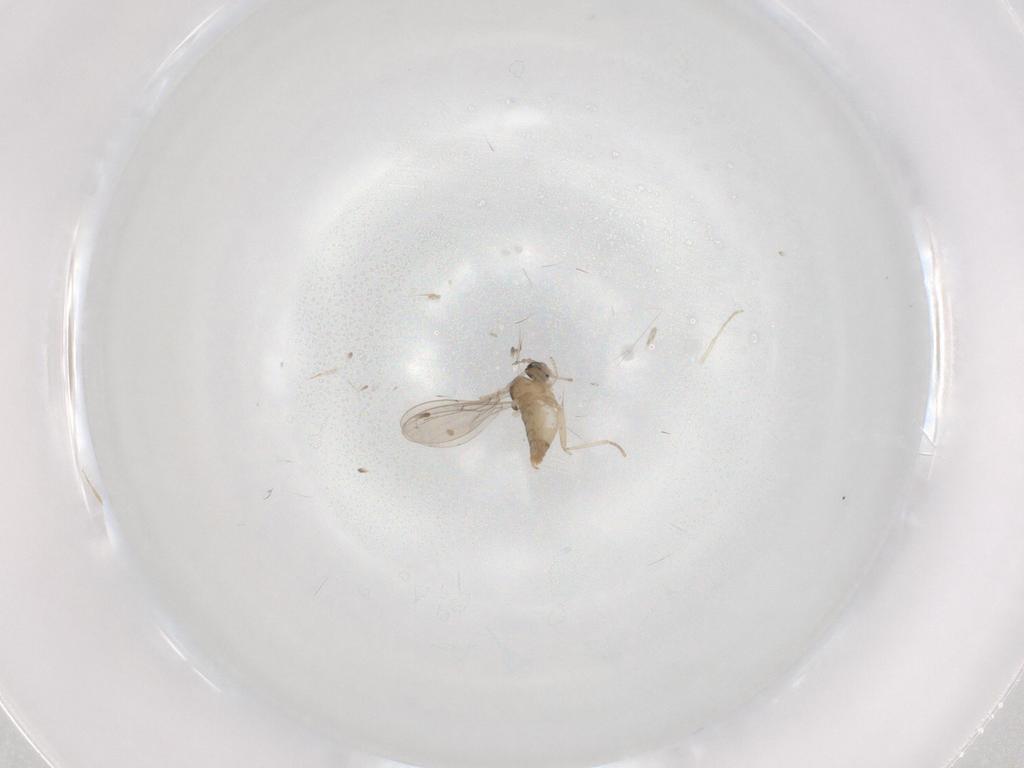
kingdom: Animalia
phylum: Arthropoda
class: Insecta
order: Diptera
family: Cecidomyiidae
